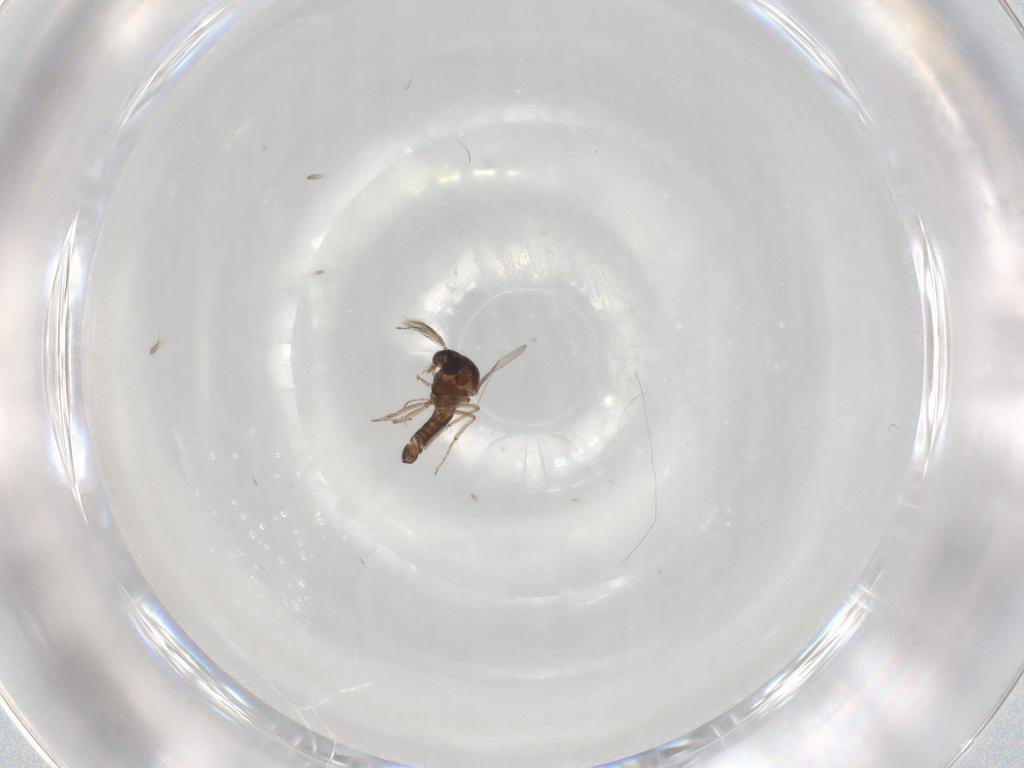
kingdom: Animalia
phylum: Arthropoda
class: Insecta
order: Diptera
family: Ceratopogonidae
